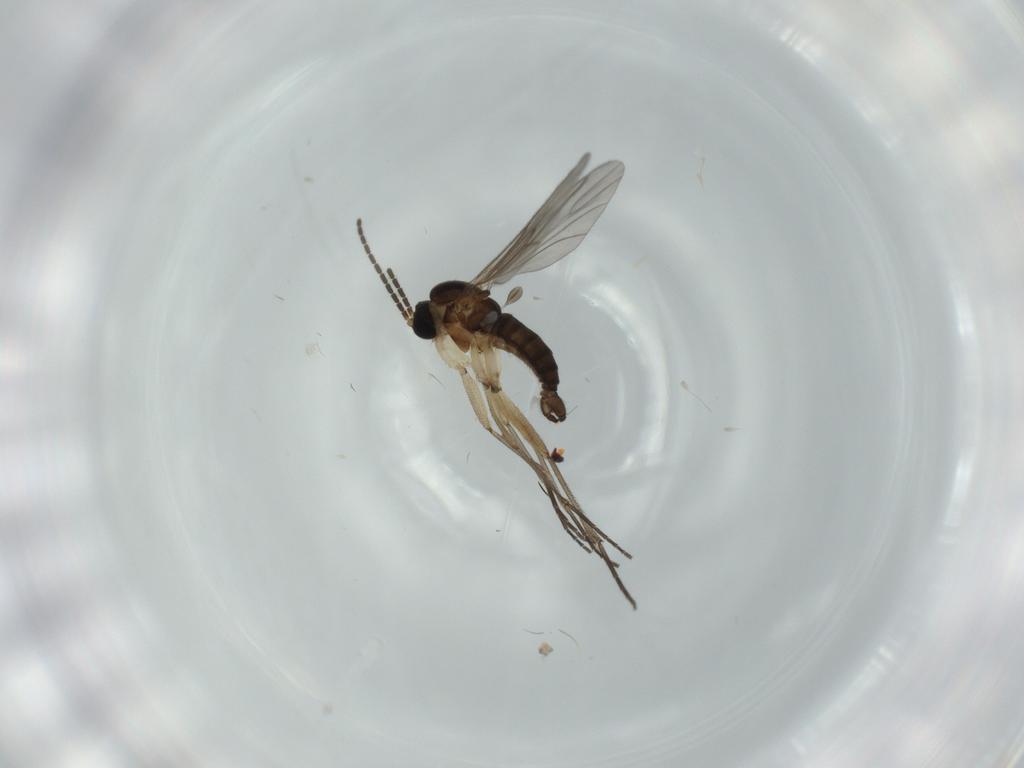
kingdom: Animalia
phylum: Arthropoda
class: Insecta
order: Diptera
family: Sciaridae
